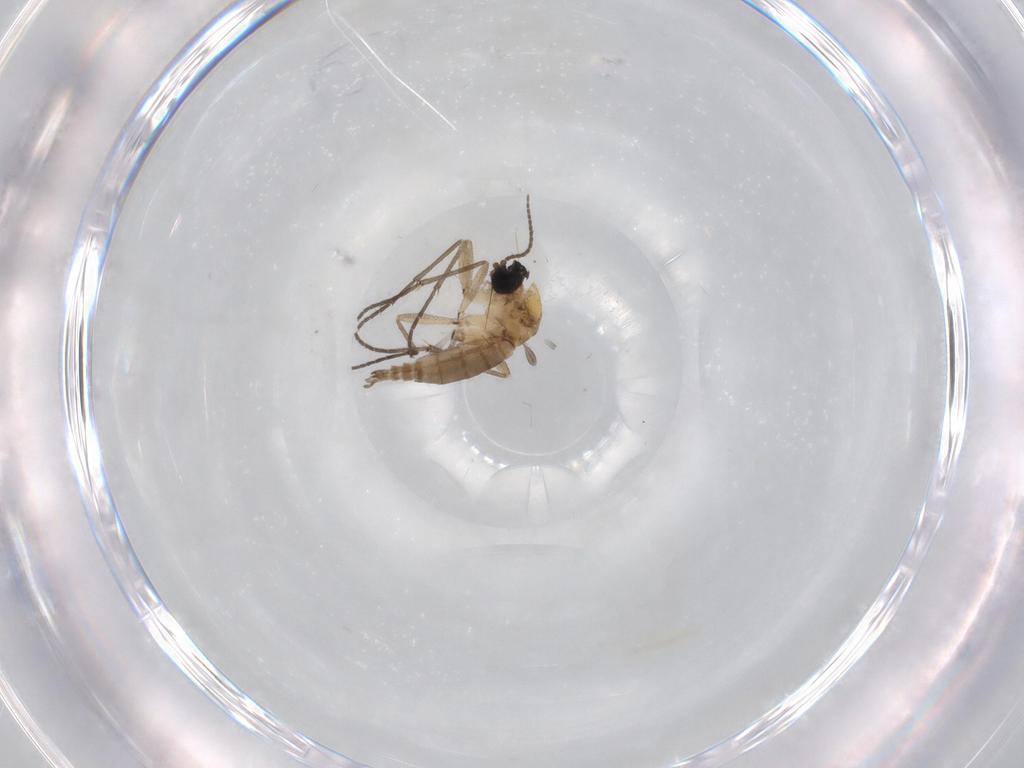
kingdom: Animalia
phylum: Arthropoda
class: Insecta
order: Diptera
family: Sciaridae
